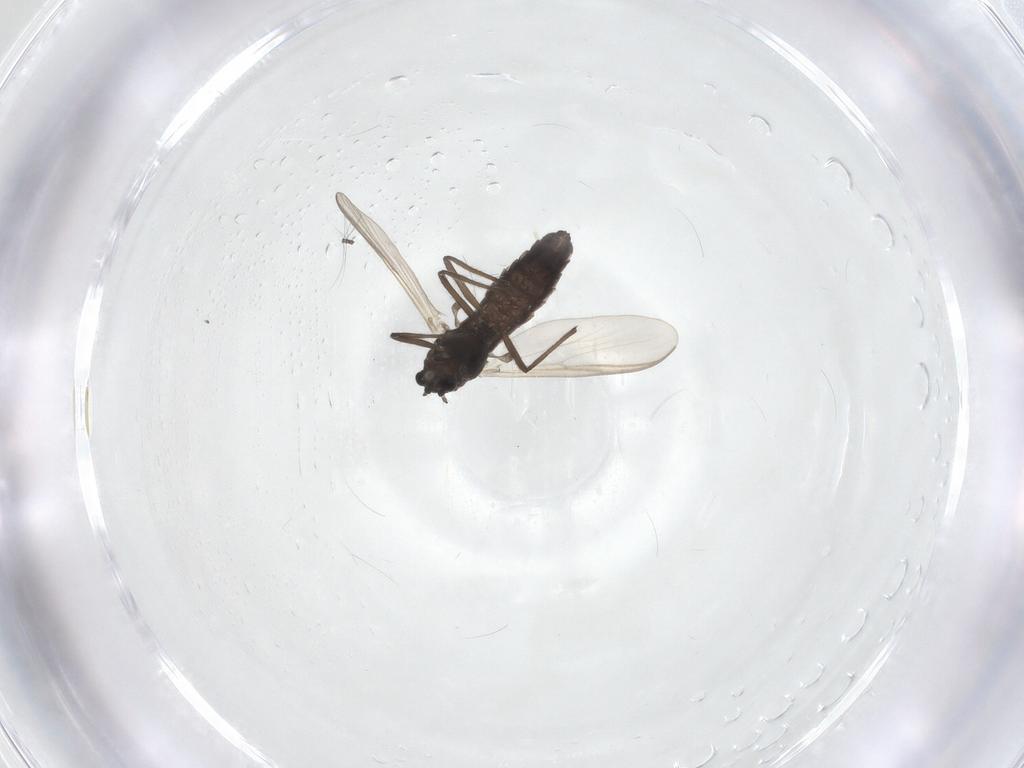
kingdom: Animalia
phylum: Arthropoda
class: Insecta
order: Diptera
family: Chironomidae
